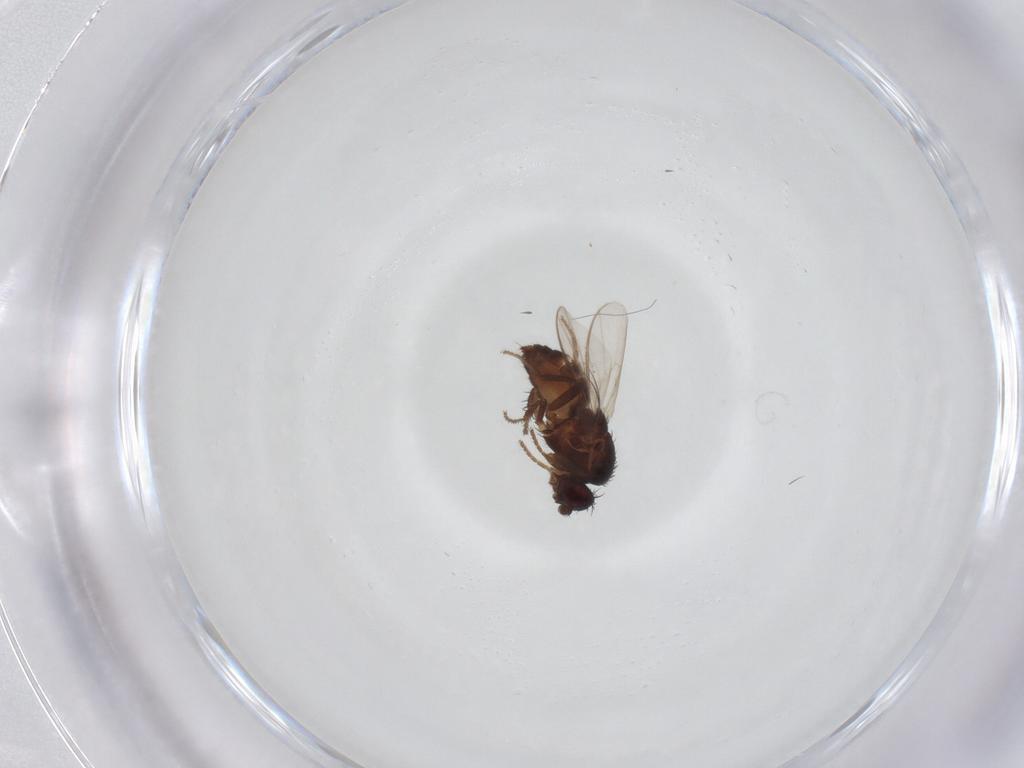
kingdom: Animalia
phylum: Arthropoda
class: Insecta
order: Diptera
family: Sphaeroceridae
